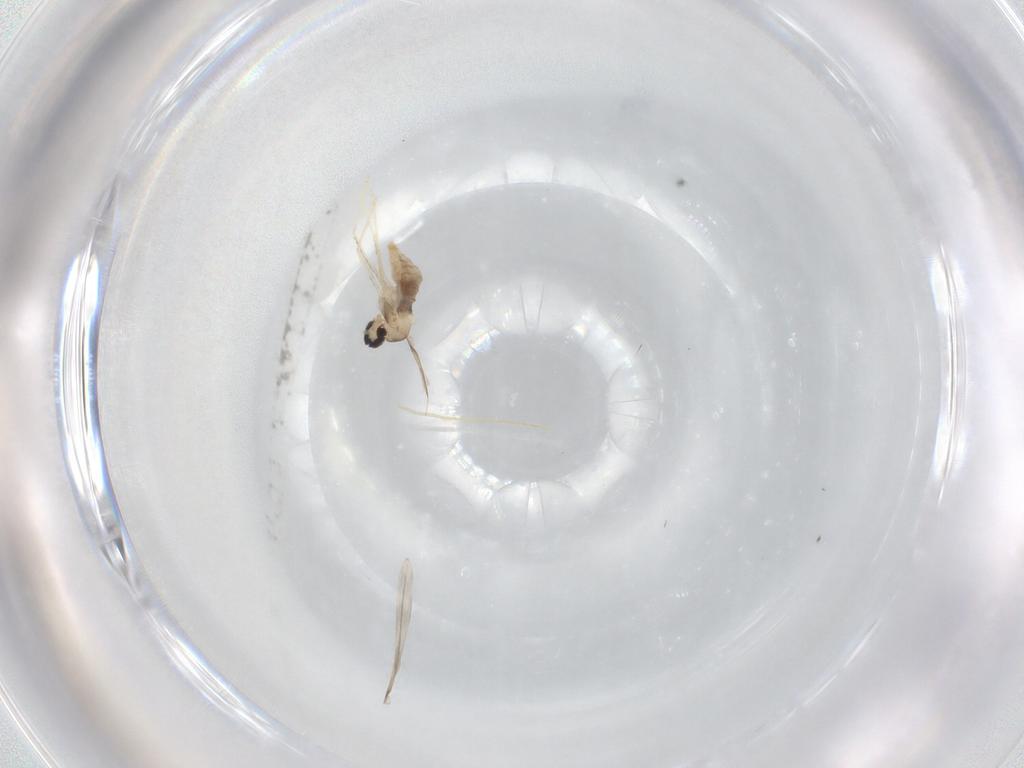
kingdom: Animalia
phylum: Arthropoda
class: Insecta
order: Diptera
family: Cecidomyiidae
